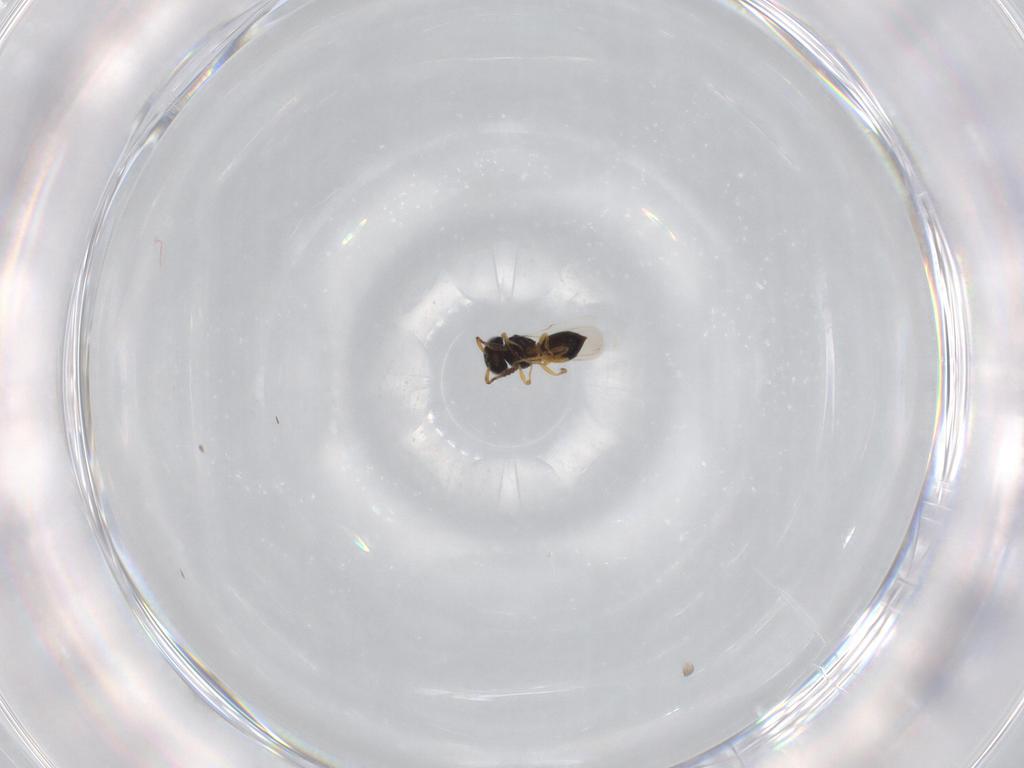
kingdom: Animalia
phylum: Arthropoda
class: Insecta
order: Hymenoptera
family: Scelionidae
